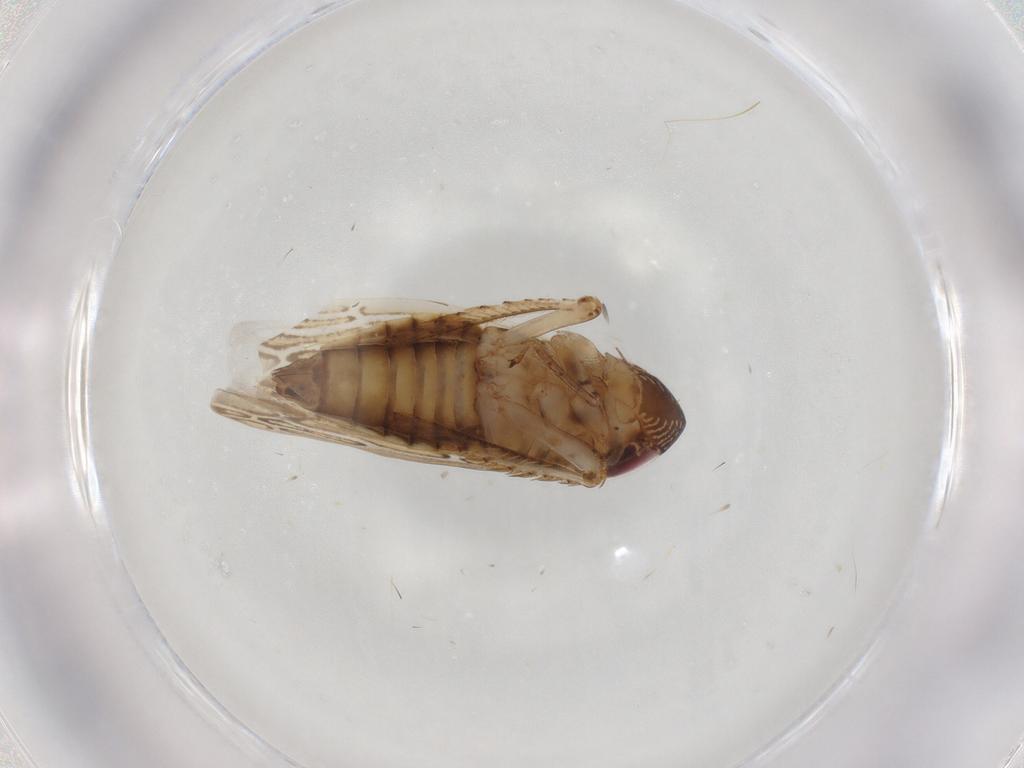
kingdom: Animalia
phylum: Arthropoda
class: Insecta
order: Hemiptera
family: Cicadellidae
